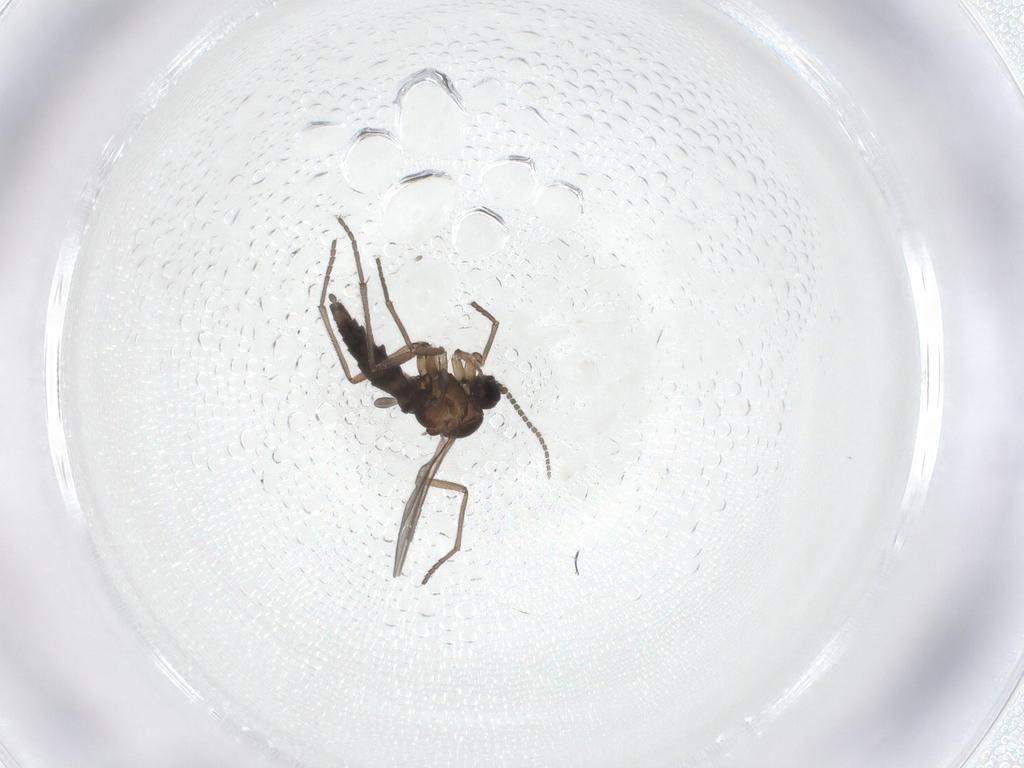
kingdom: Animalia
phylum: Arthropoda
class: Insecta
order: Diptera
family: Sciaridae
